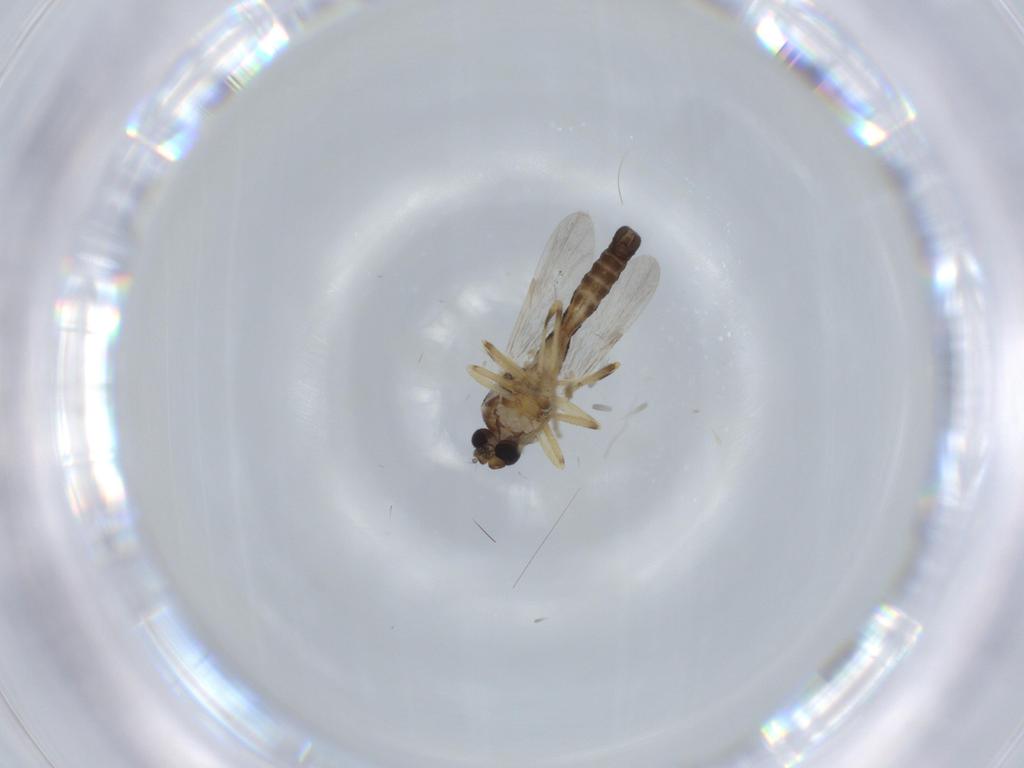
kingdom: Animalia
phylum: Arthropoda
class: Insecta
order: Diptera
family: Ceratopogonidae
